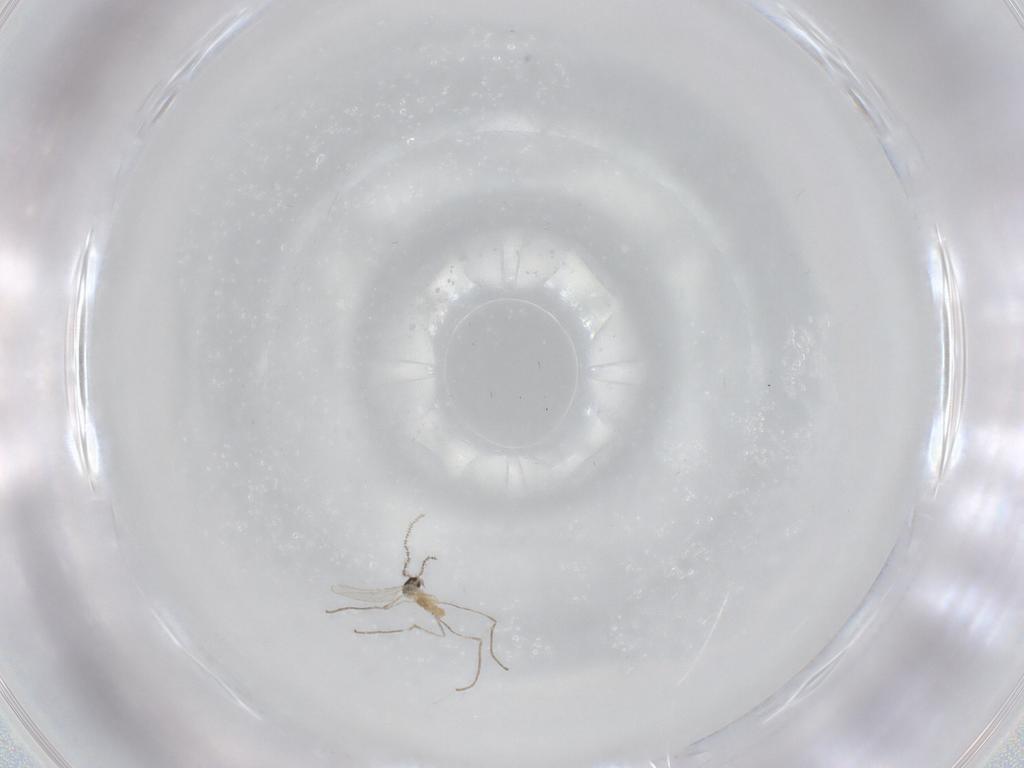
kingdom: Animalia
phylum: Arthropoda
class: Insecta
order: Diptera
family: Cecidomyiidae
